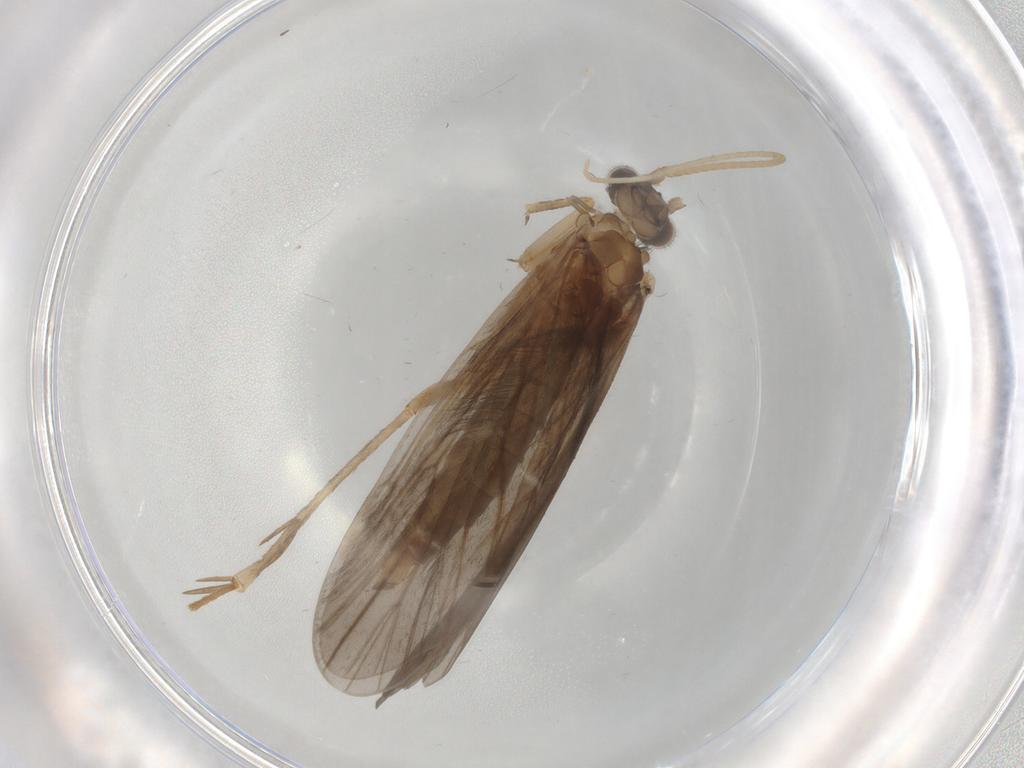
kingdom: Animalia
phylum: Arthropoda
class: Insecta
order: Trichoptera
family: Philopotamidae
